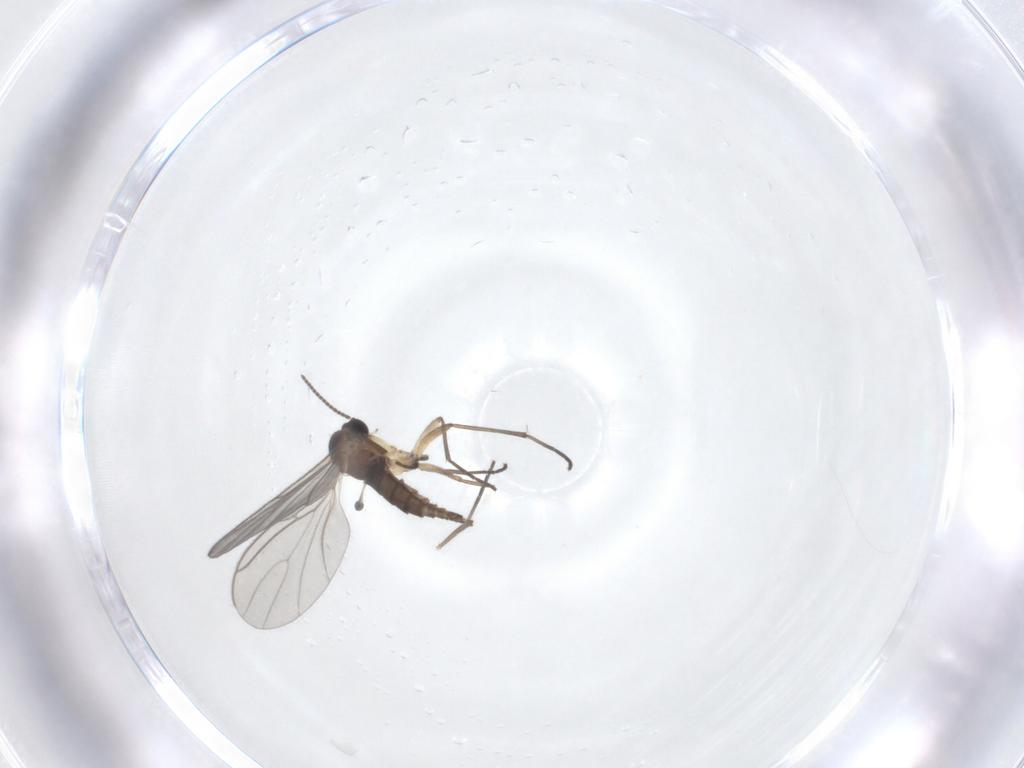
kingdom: Animalia
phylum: Arthropoda
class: Insecta
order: Diptera
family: Sciaridae
